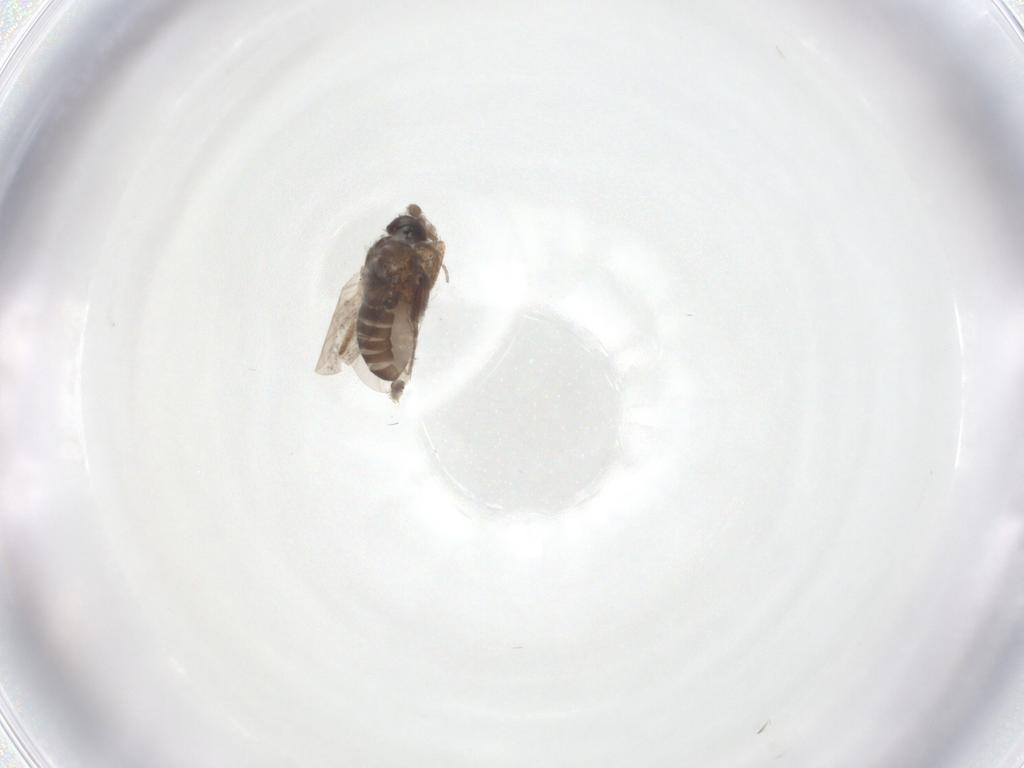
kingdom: Animalia
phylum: Arthropoda
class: Insecta
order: Diptera
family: Phoridae
